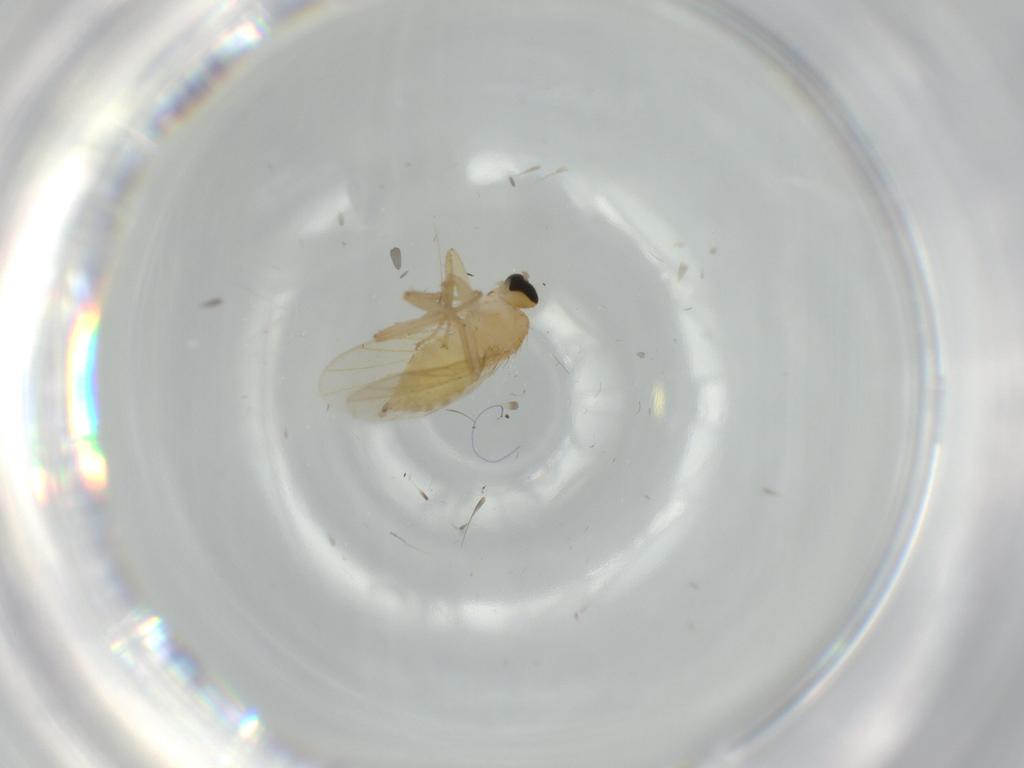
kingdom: Animalia
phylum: Arthropoda
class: Insecta
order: Diptera
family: Hybotidae
